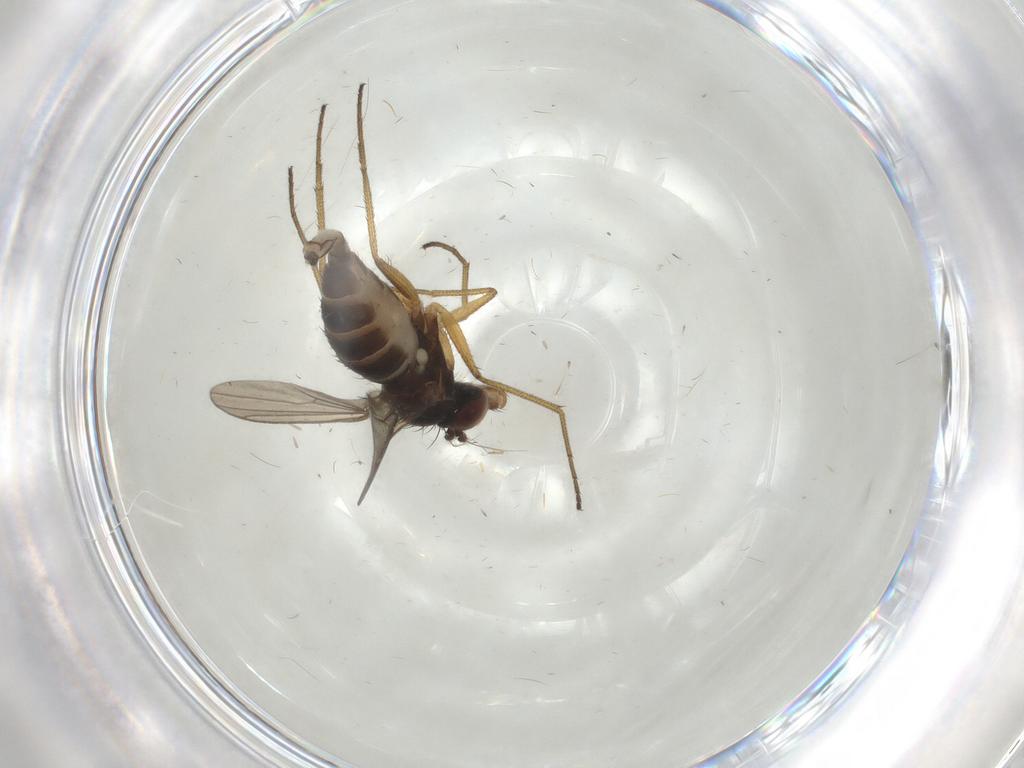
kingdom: Animalia
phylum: Arthropoda
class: Insecta
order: Diptera
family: Dolichopodidae
